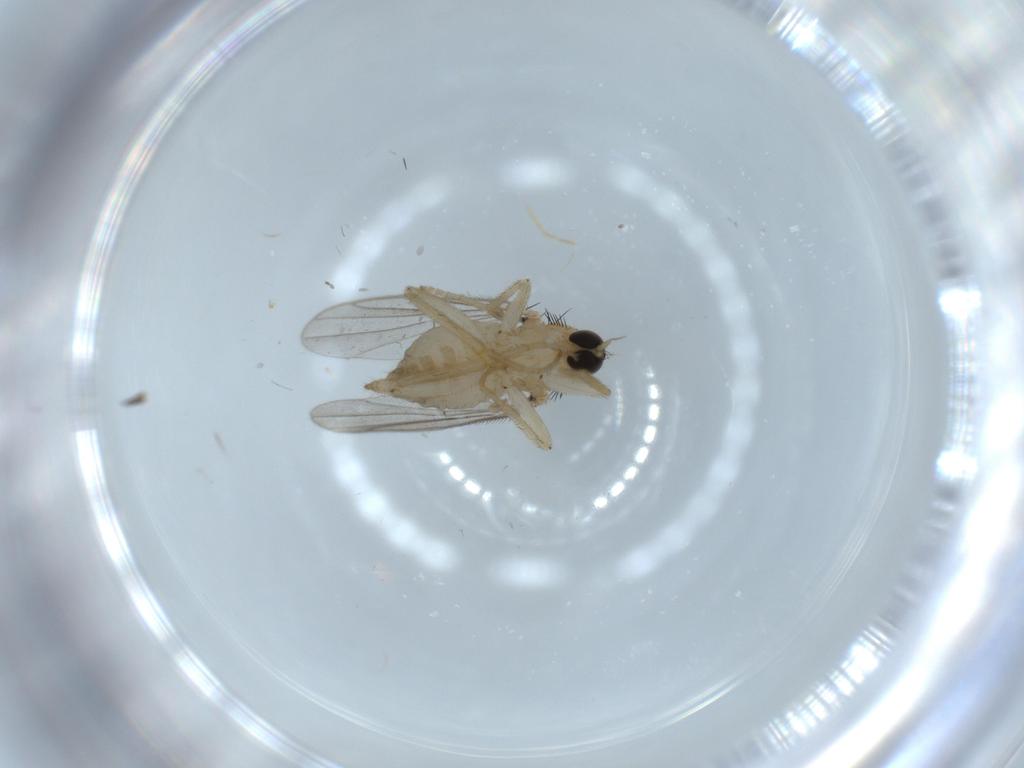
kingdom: Animalia
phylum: Arthropoda
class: Insecta
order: Diptera
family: Hybotidae
